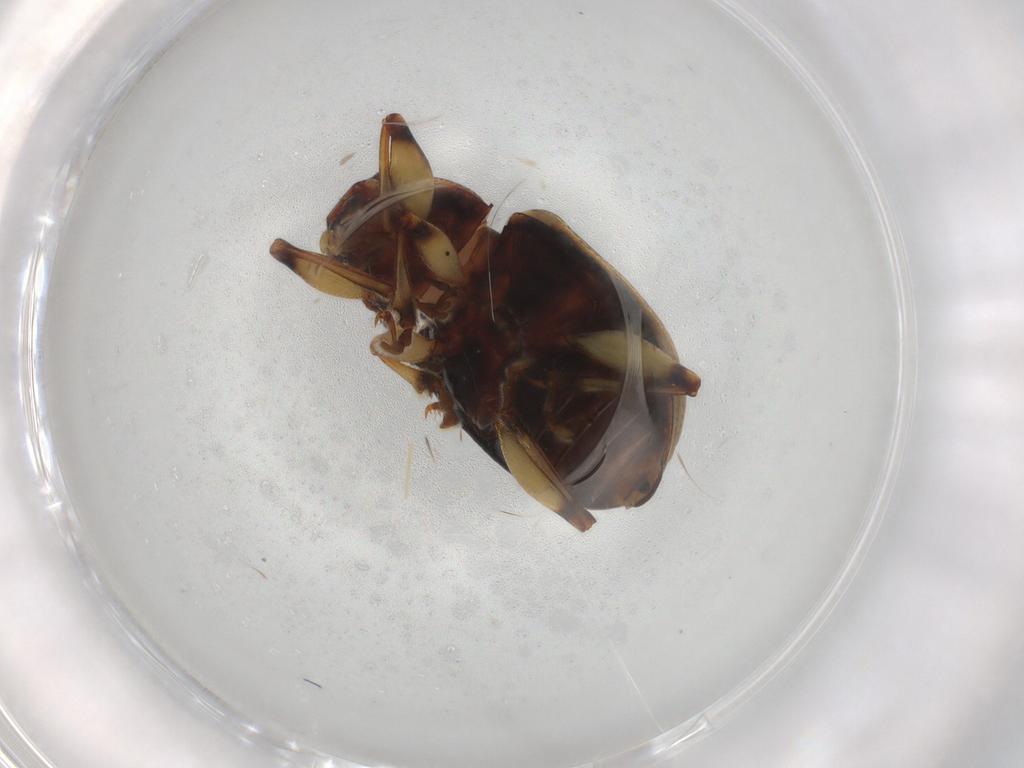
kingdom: Animalia
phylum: Arthropoda
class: Insecta
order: Coleoptera
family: Chrysomelidae
